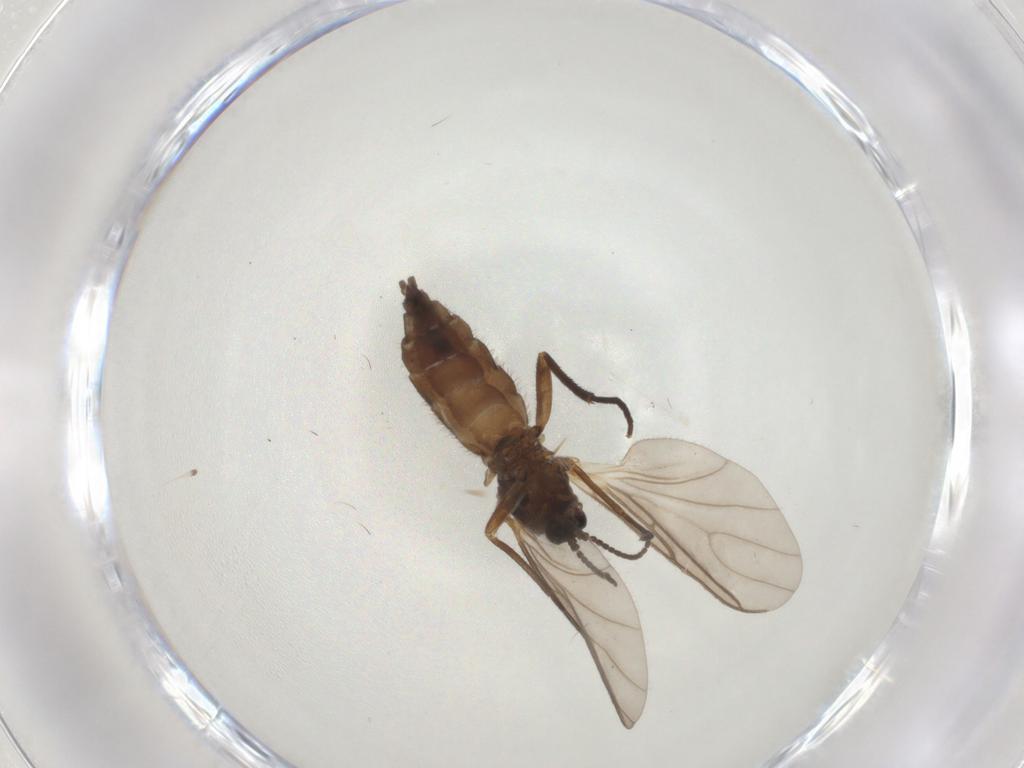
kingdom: Animalia
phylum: Arthropoda
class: Insecta
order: Diptera
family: Sciaridae
